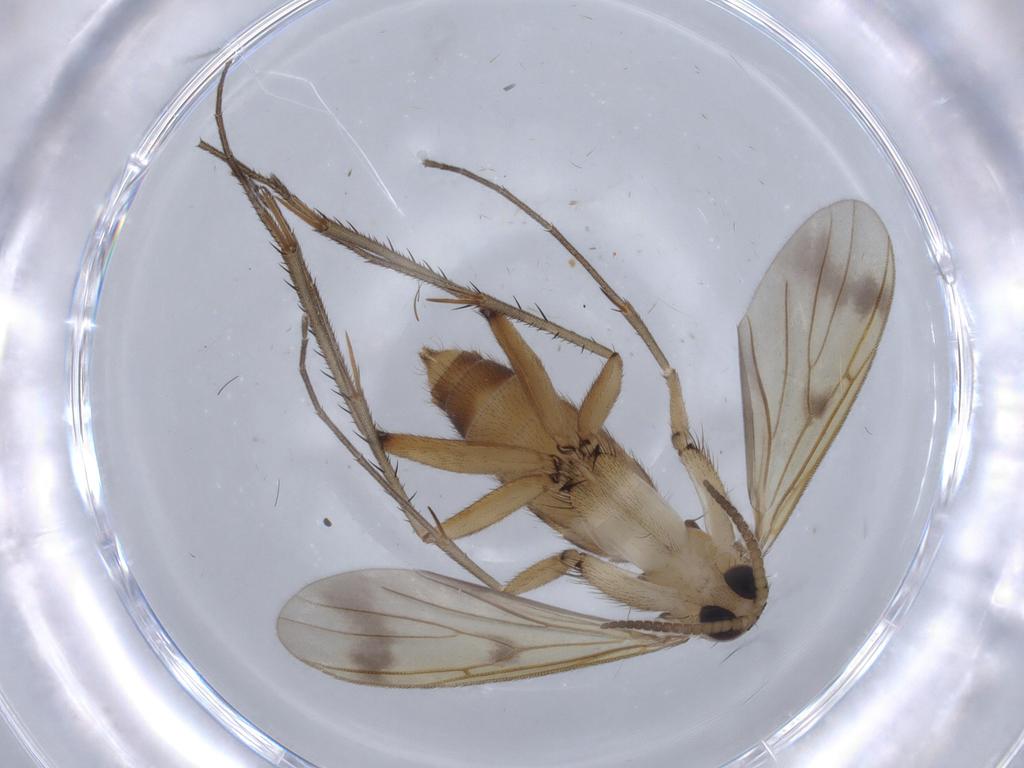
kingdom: Animalia
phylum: Arthropoda
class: Insecta
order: Diptera
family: Mycetophilidae
